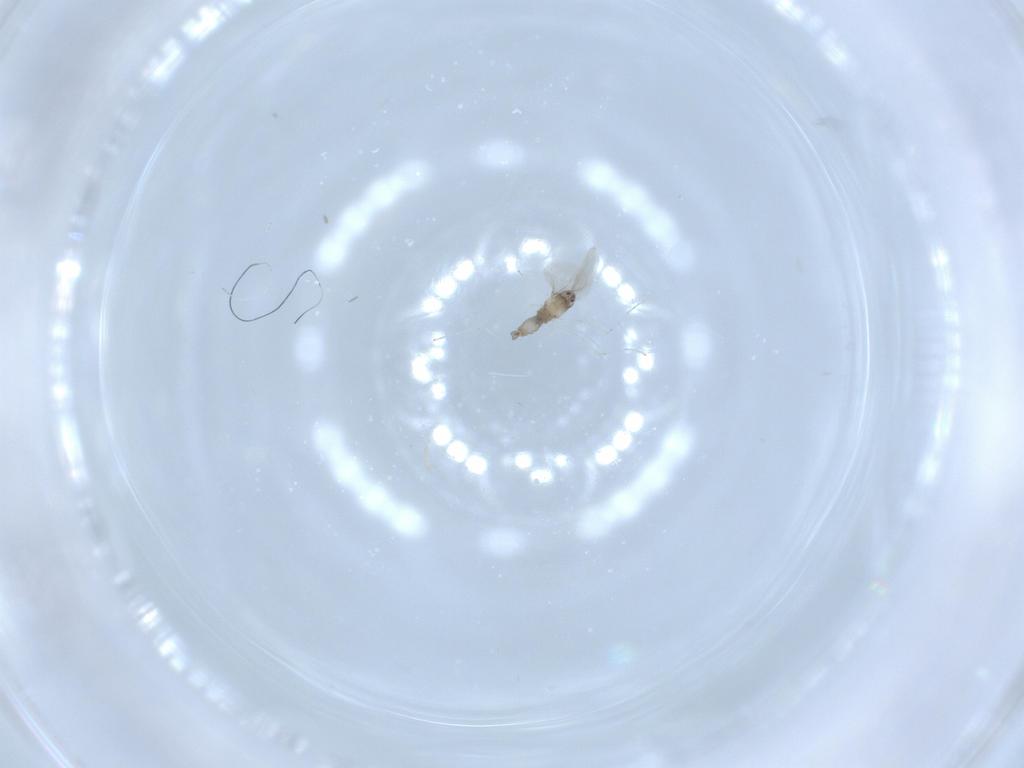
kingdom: Animalia
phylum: Arthropoda
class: Insecta
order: Diptera
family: Cecidomyiidae
